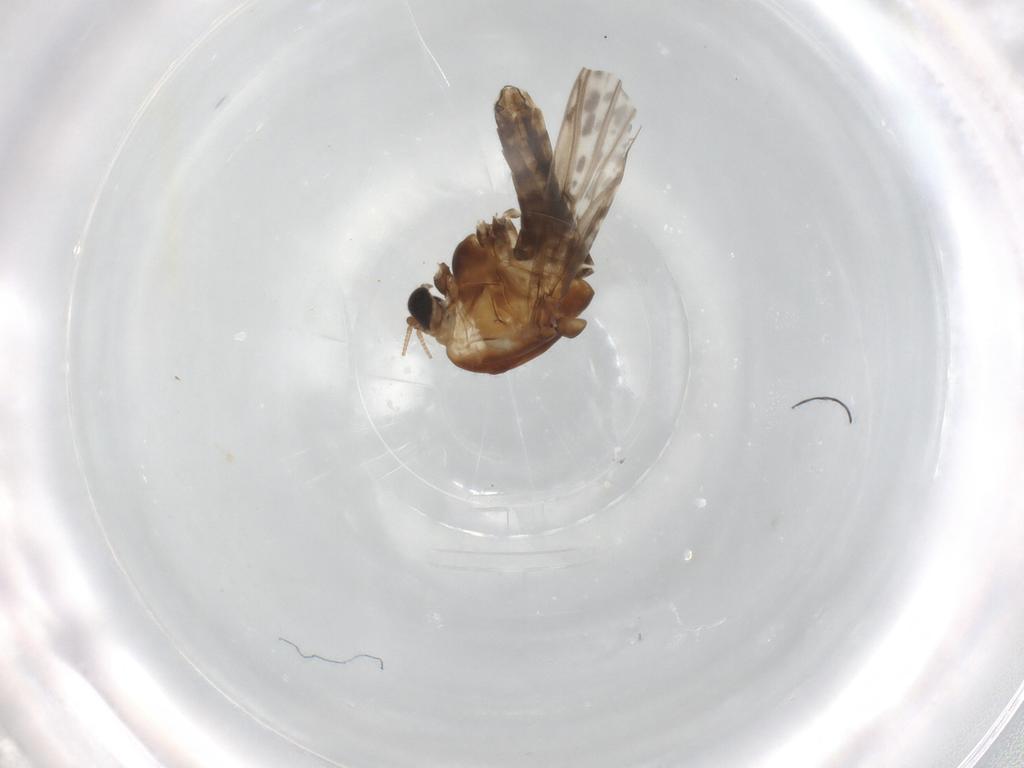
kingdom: Animalia
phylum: Arthropoda
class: Insecta
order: Diptera
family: Chironomidae
